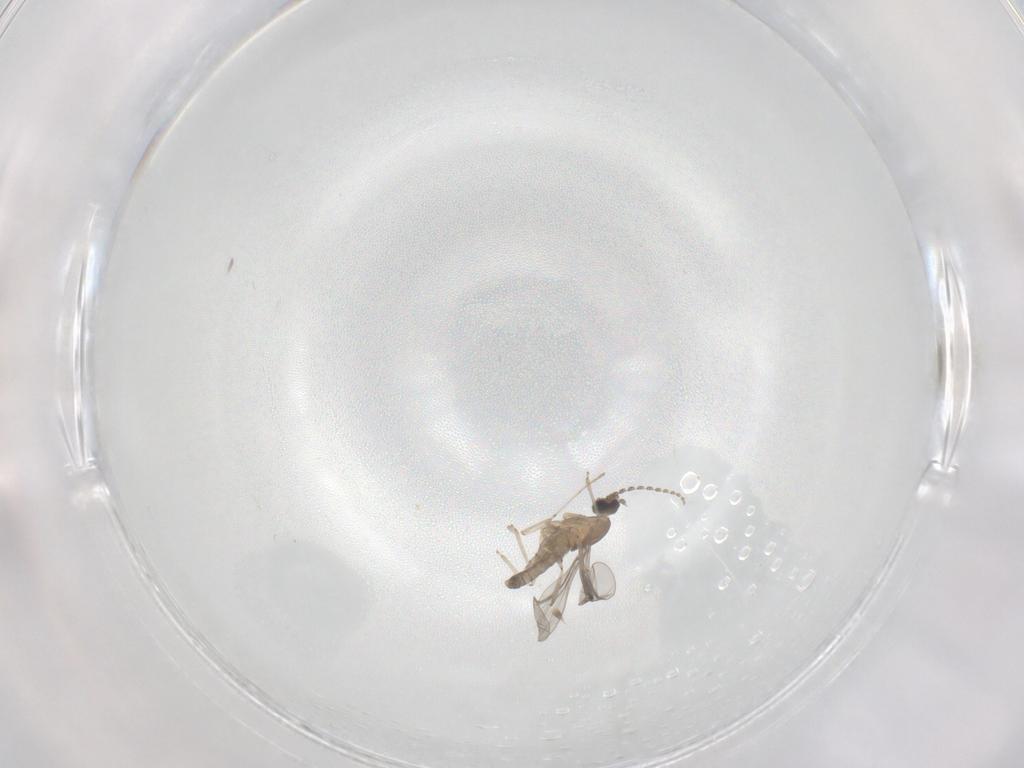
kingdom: Animalia
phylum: Arthropoda
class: Insecta
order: Diptera
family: Cecidomyiidae
